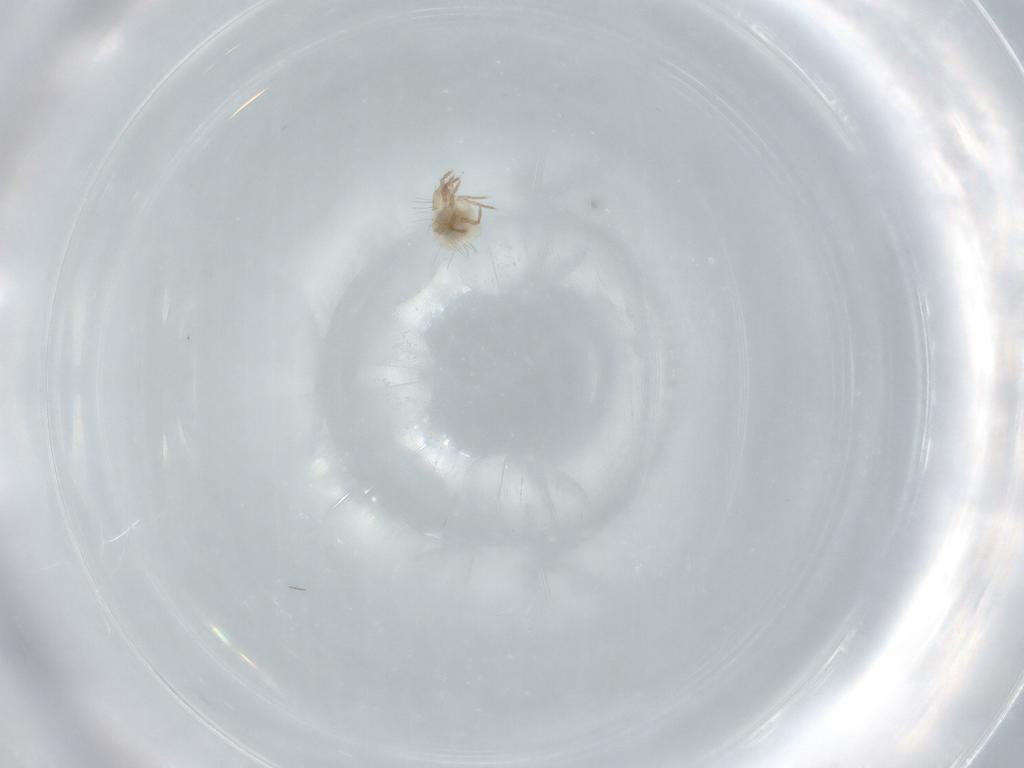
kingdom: Animalia
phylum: Arthropoda
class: Arachnida
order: Sarcoptiformes
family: Mochlozetidae
